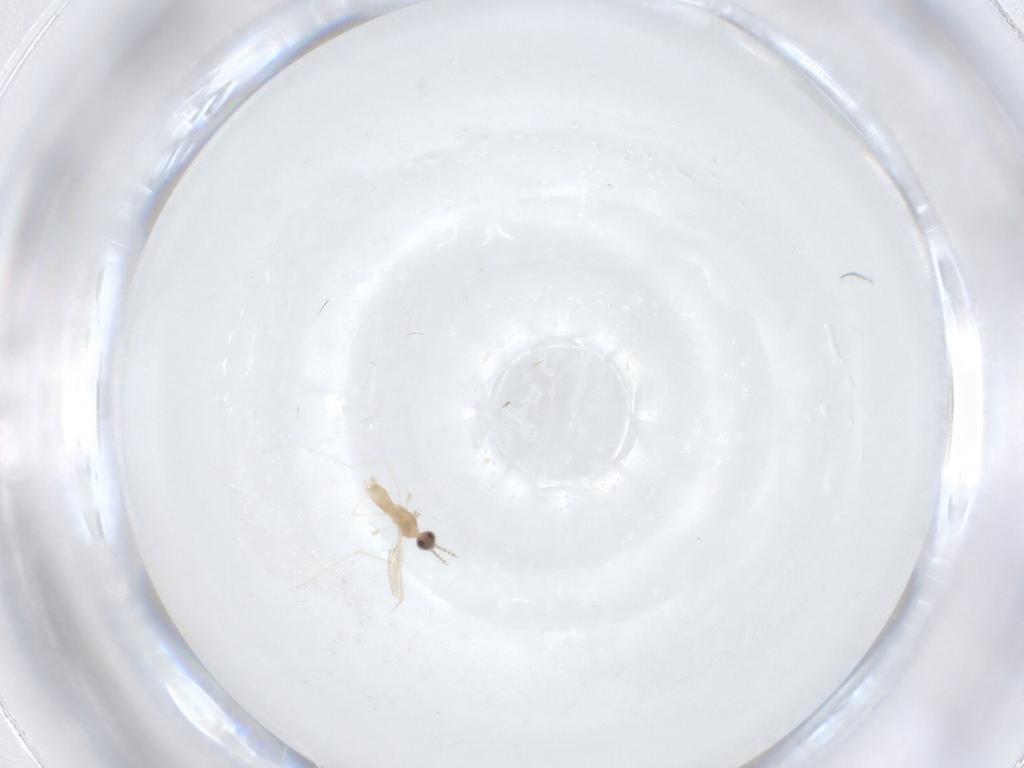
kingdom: Animalia
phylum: Arthropoda
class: Insecta
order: Diptera
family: Cecidomyiidae
